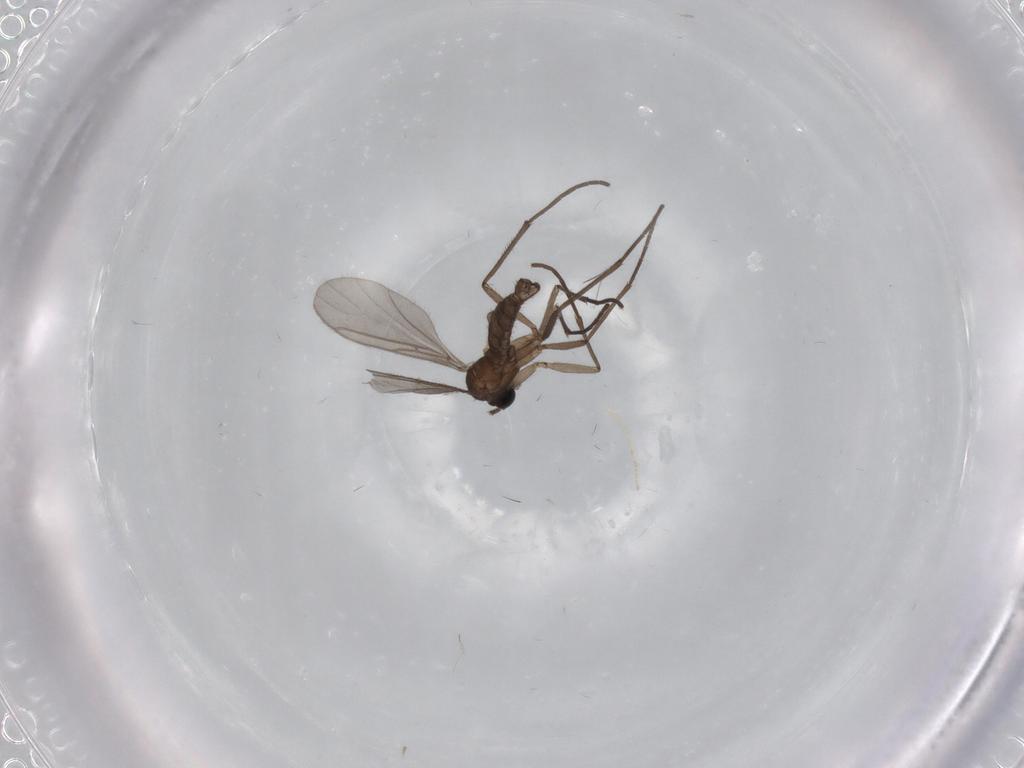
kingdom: Animalia
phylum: Arthropoda
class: Insecta
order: Diptera
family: Sciaridae
